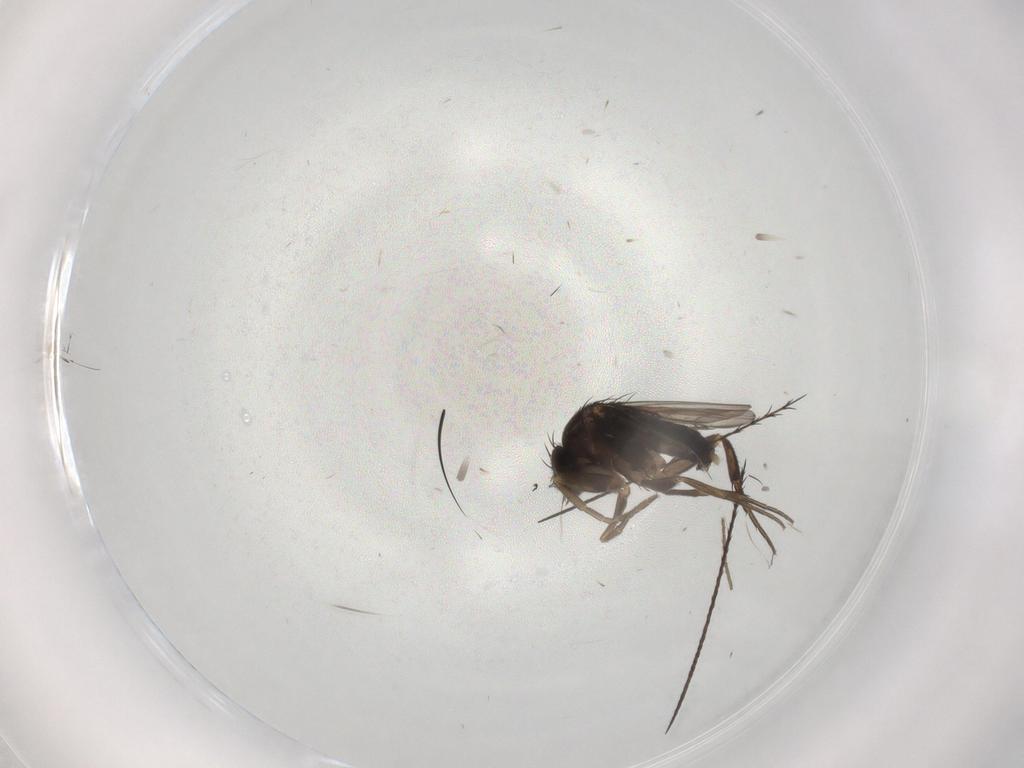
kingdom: Animalia
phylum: Arthropoda
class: Insecta
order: Diptera
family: Phoridae
